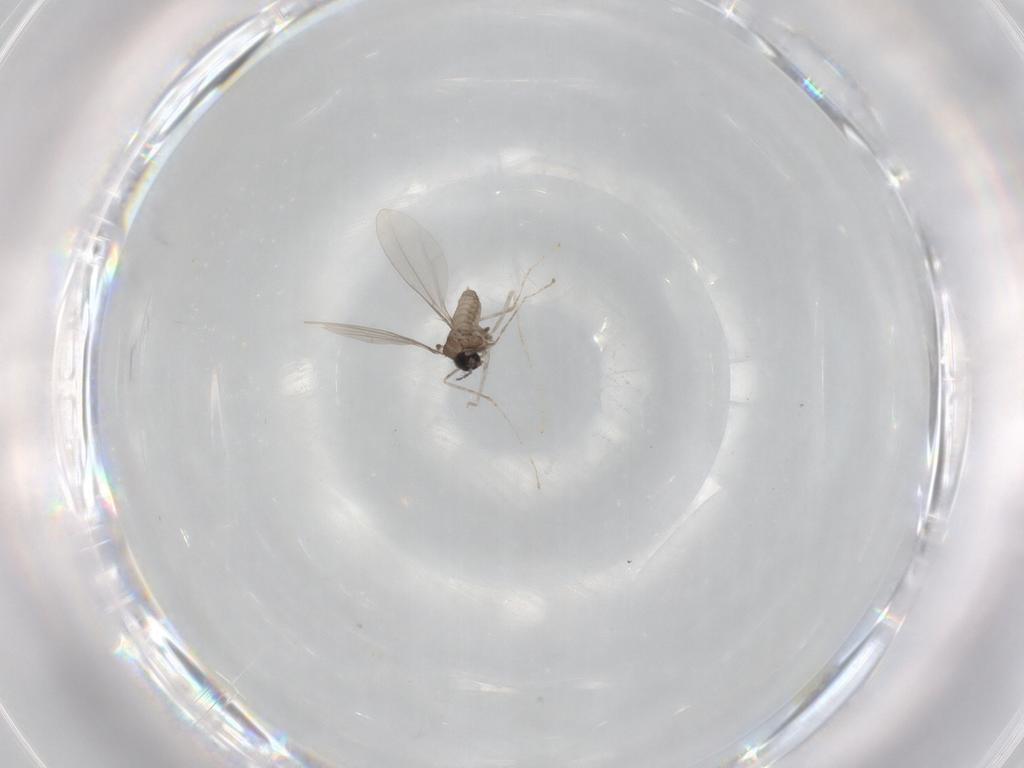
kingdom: Animalia
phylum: Arthropoda
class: Insecta
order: Diptera
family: Cecidomyiidae
